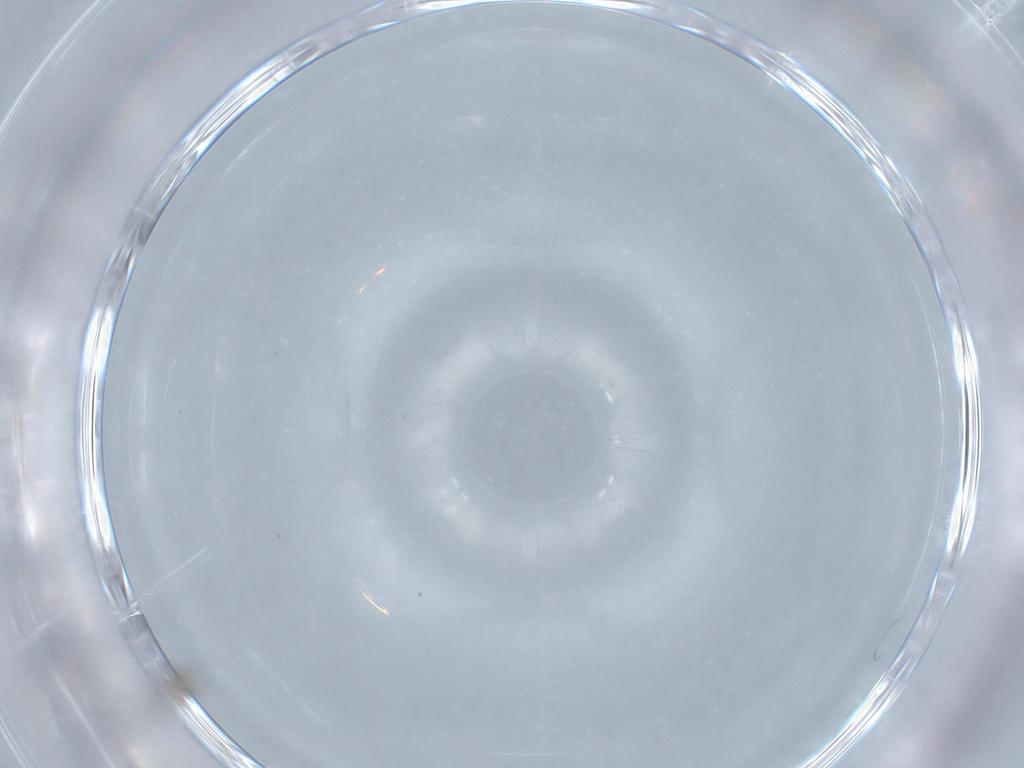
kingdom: Animalia
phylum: Arthropoda
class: Insecta
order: Hymenoptera
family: Mymaridae
